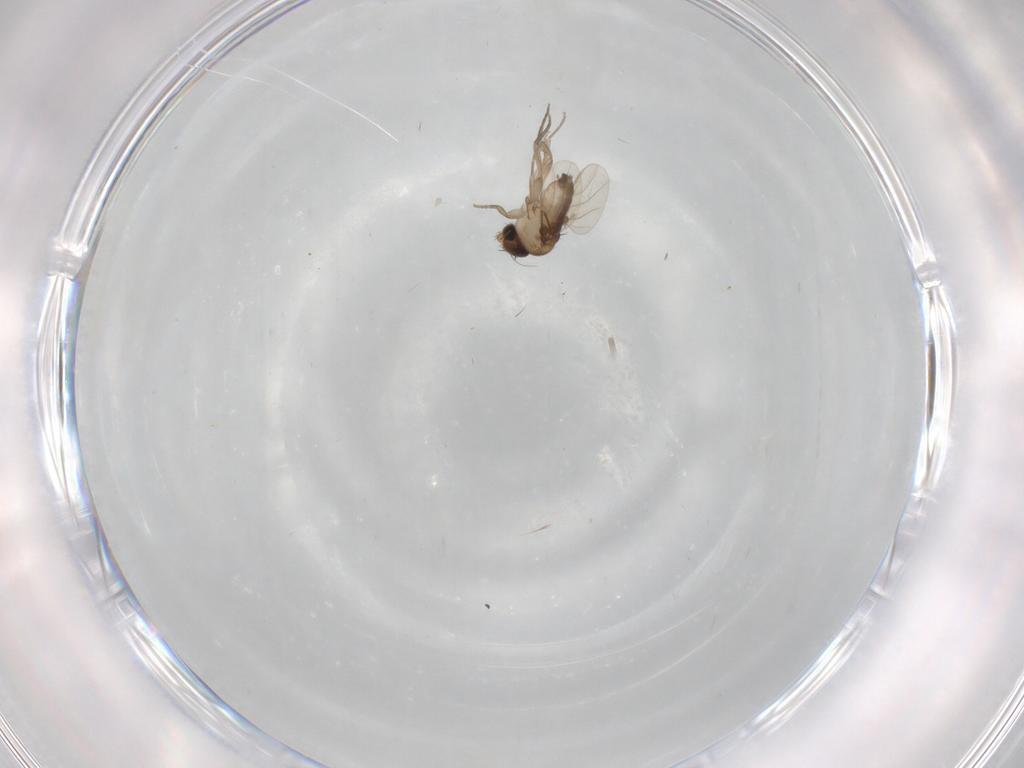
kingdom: Animalia
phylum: Arthropoda
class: Insecta
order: Diptera
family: Phoridae
